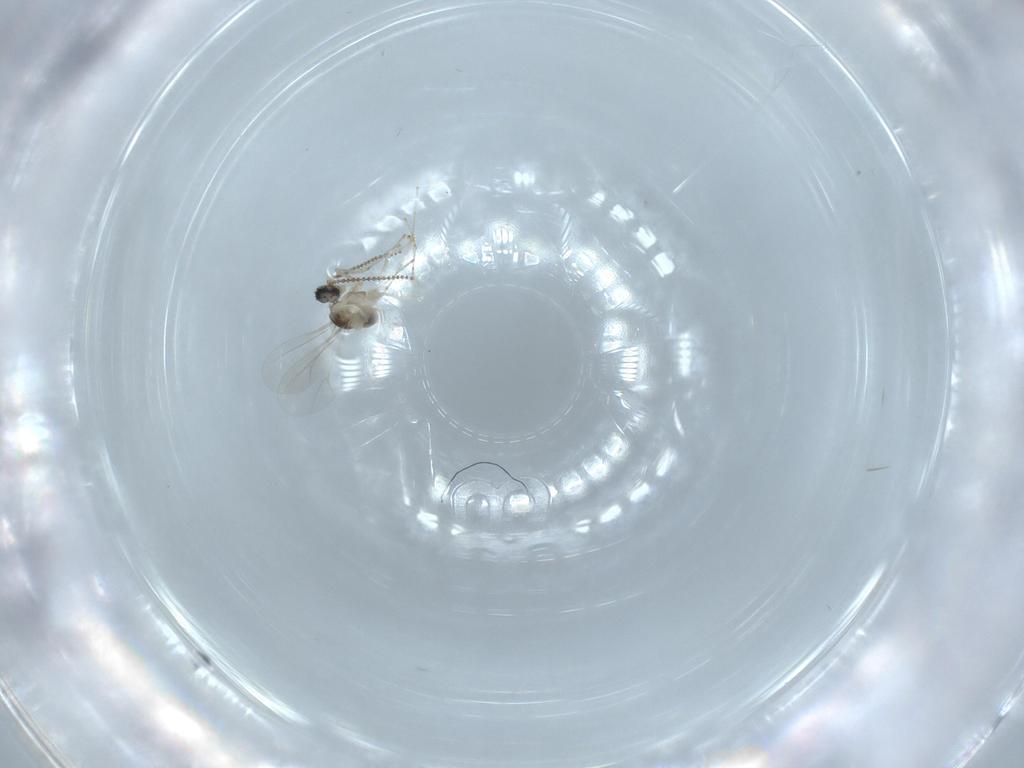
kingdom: Animalia
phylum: Arthropoda
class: Insecta
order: Diptera
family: Cecidomyiidae
